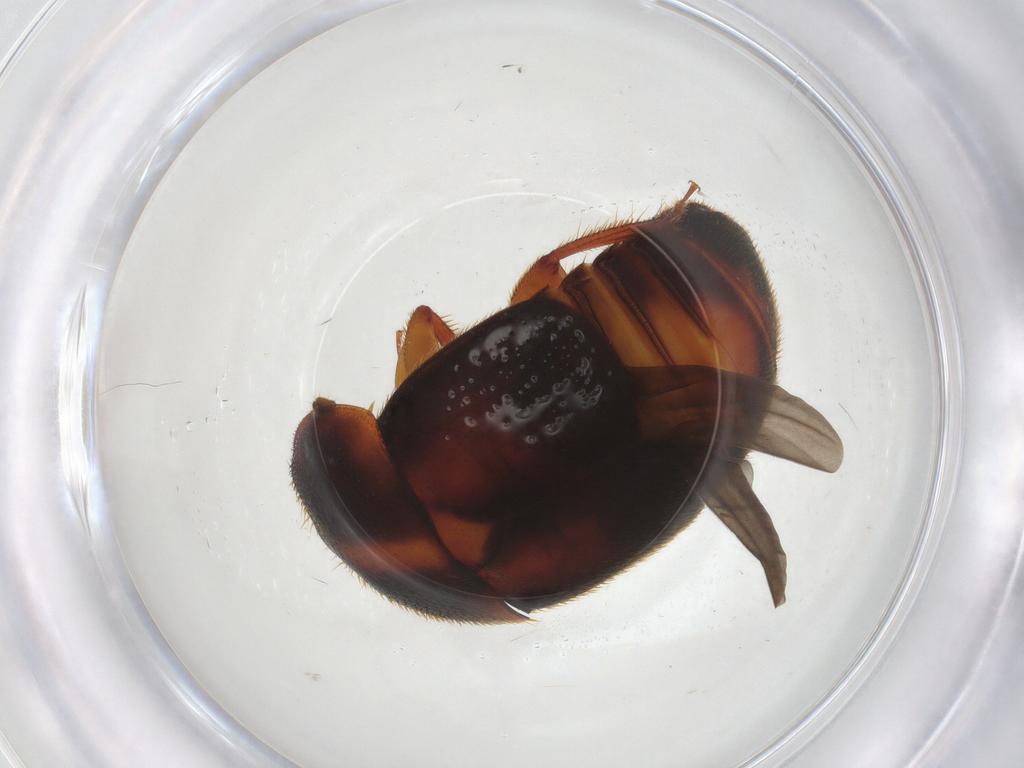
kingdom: Animalia
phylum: Arthropoda
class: Insecta
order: Coleoptera
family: Nitidulidae
